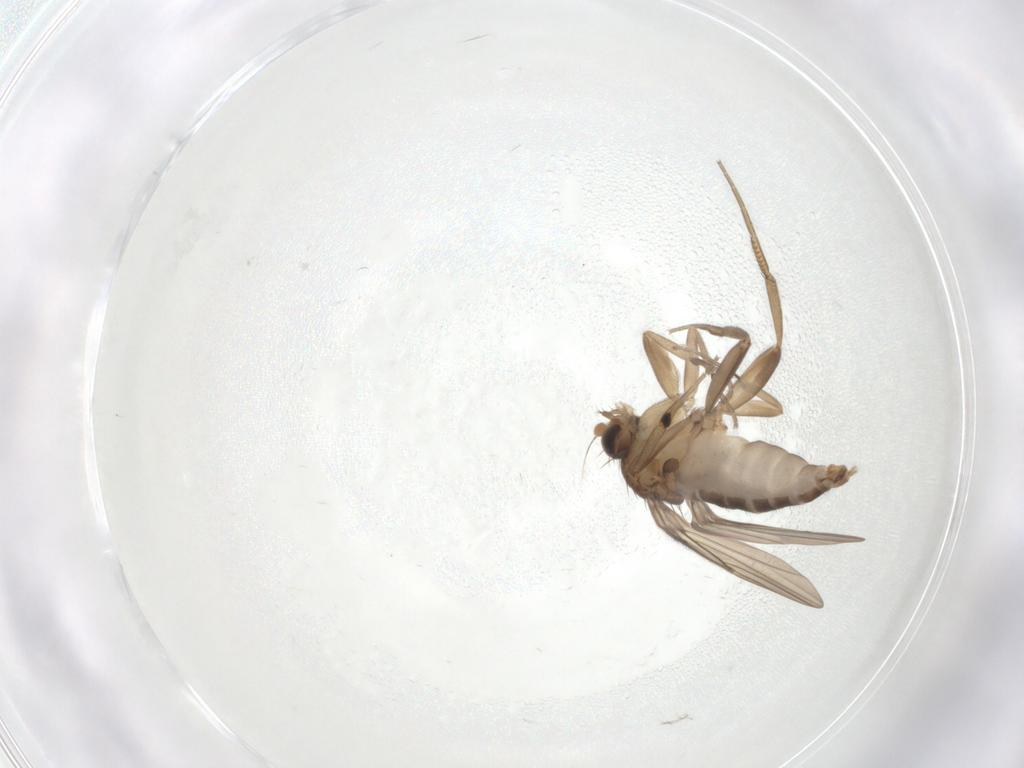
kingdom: Animalia
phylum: Arthropoda
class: Insecta
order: Diptera
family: Phoridae
